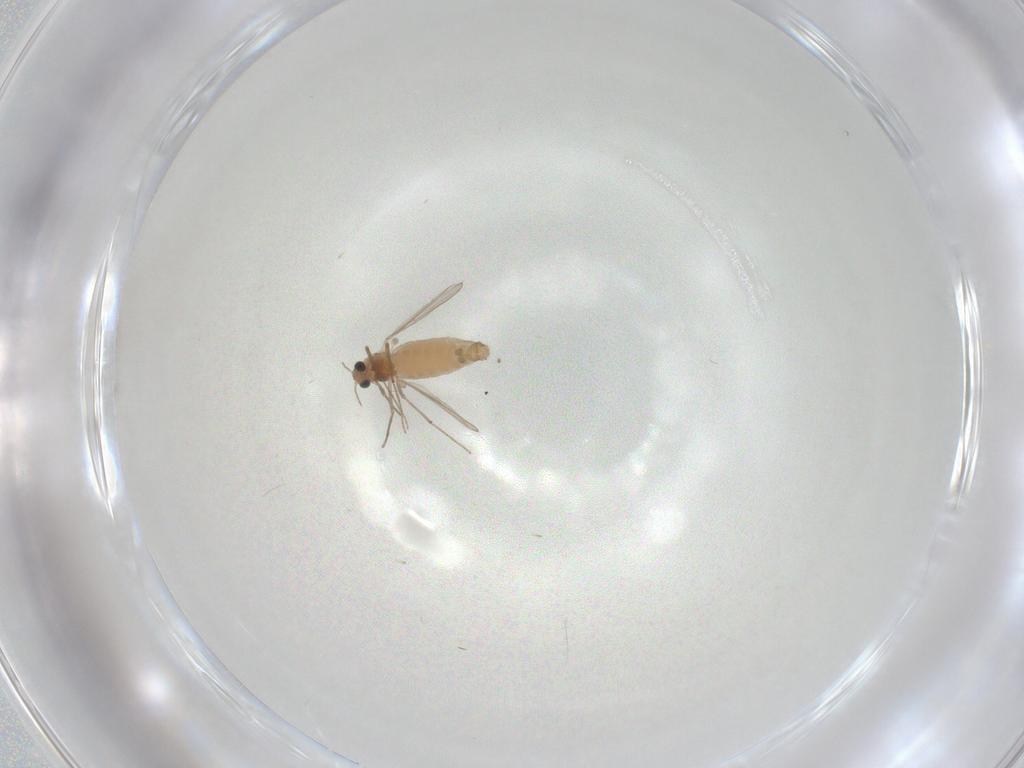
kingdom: Animalia
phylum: Arthropoda
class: Insecta
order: Diptera
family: Chironomidae
